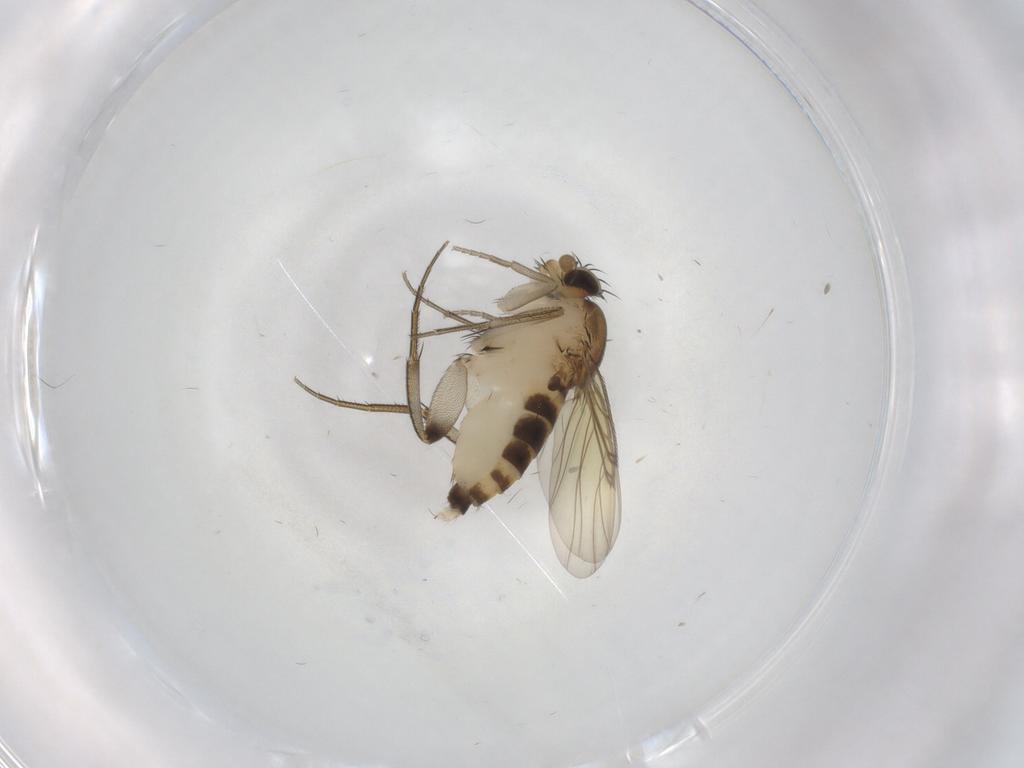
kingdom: Animalia
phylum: Arthropoda
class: Insecta
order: Diptera
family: Phoridae
